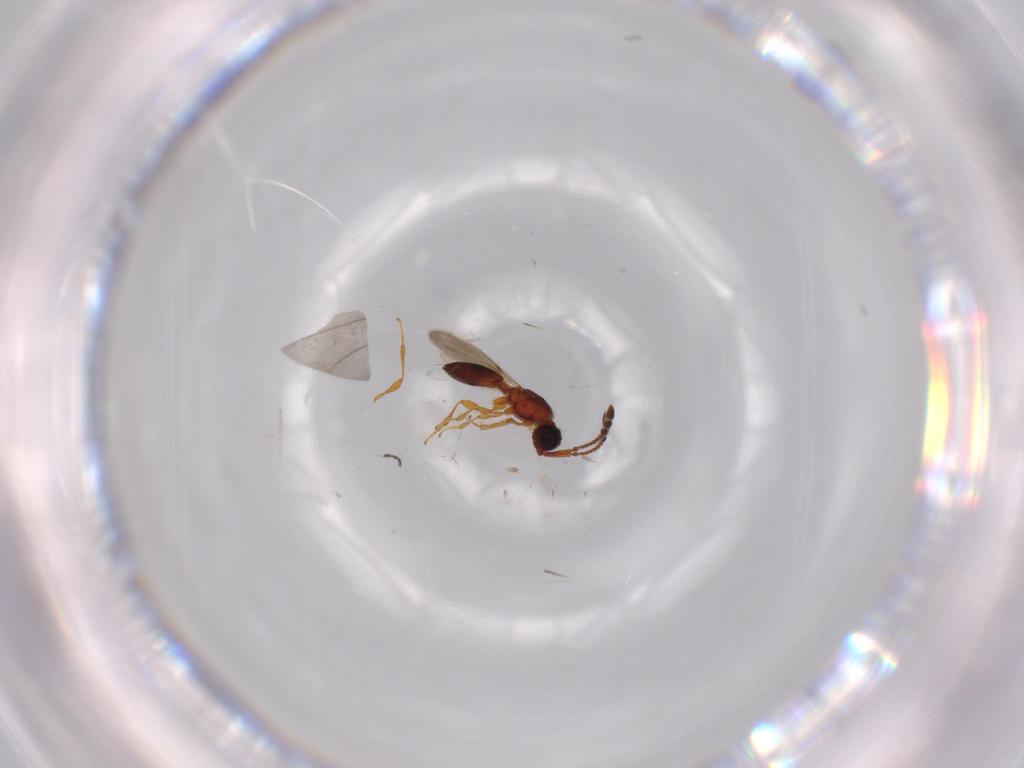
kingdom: Animalia
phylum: Arthropoda
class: Insecta
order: Hymenoptera
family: Diapriidae
